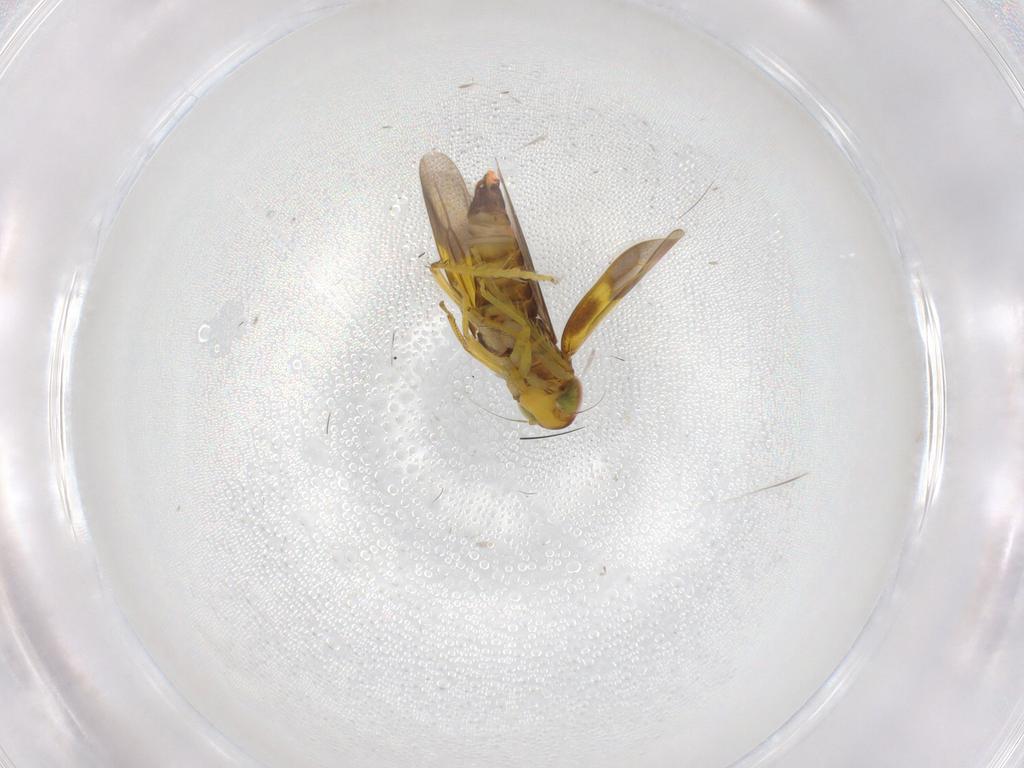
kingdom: Animalia
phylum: Arthropoda
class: Insecta
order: Hemiptera
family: Cicadellidae
